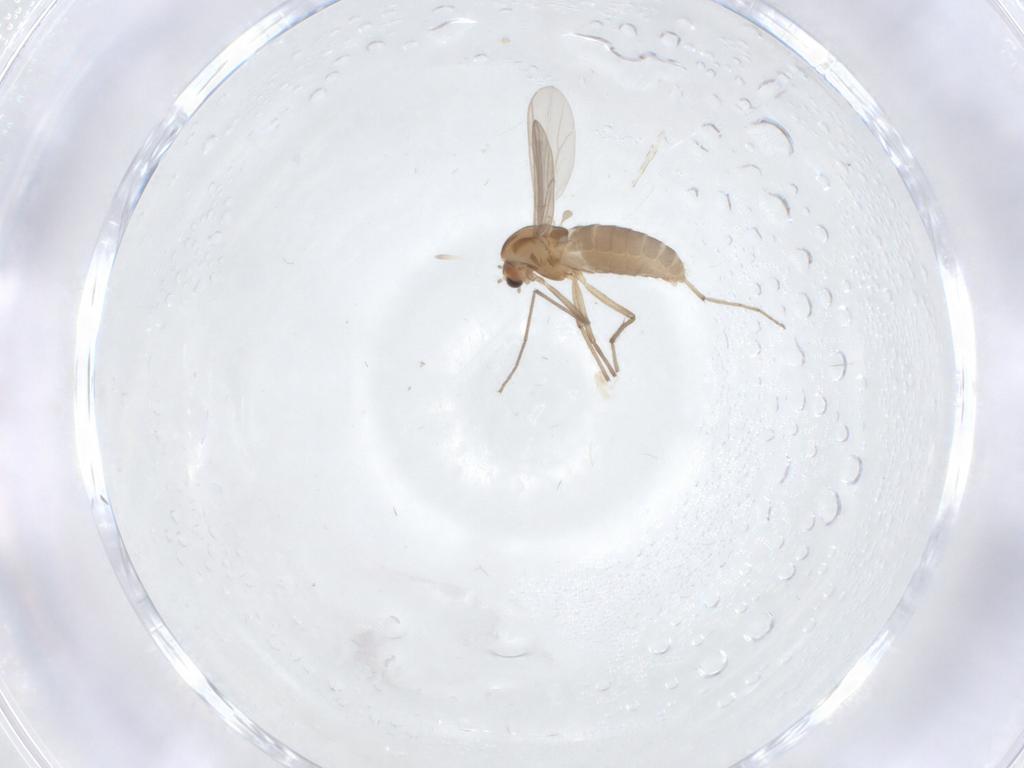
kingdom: Animalia
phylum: Arthropoda
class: Insecta
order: Diptera
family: Chironomidae
